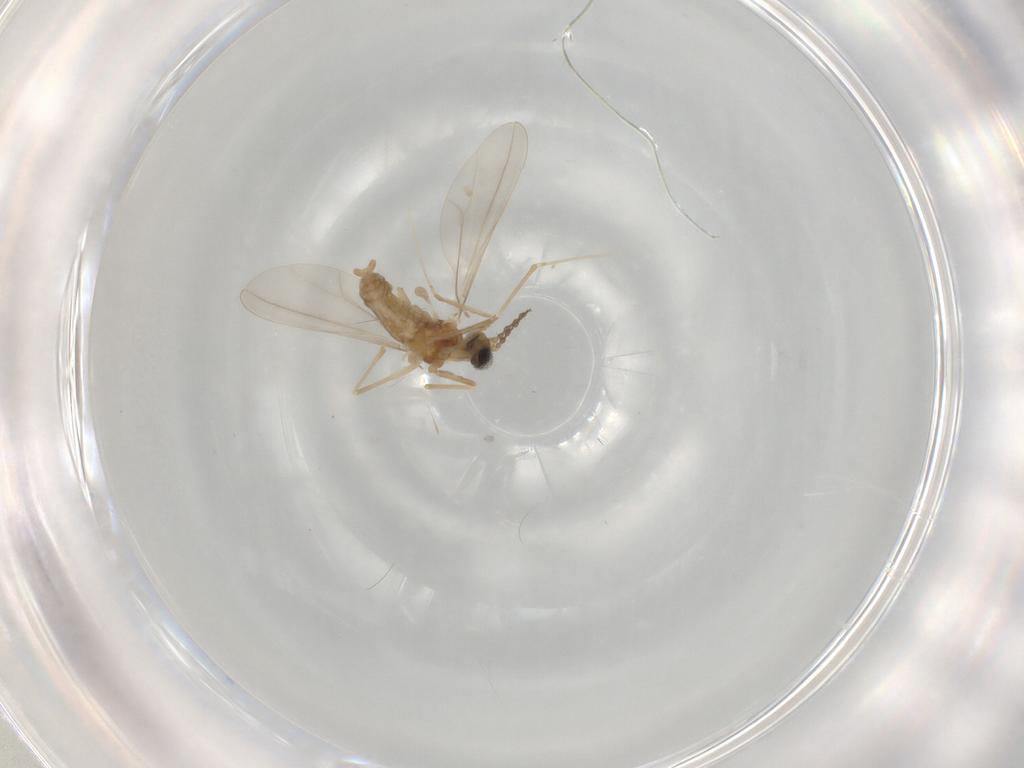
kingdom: Animalia
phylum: Arthropoda
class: Insecta
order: Diptera
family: Cecidomyiidae
